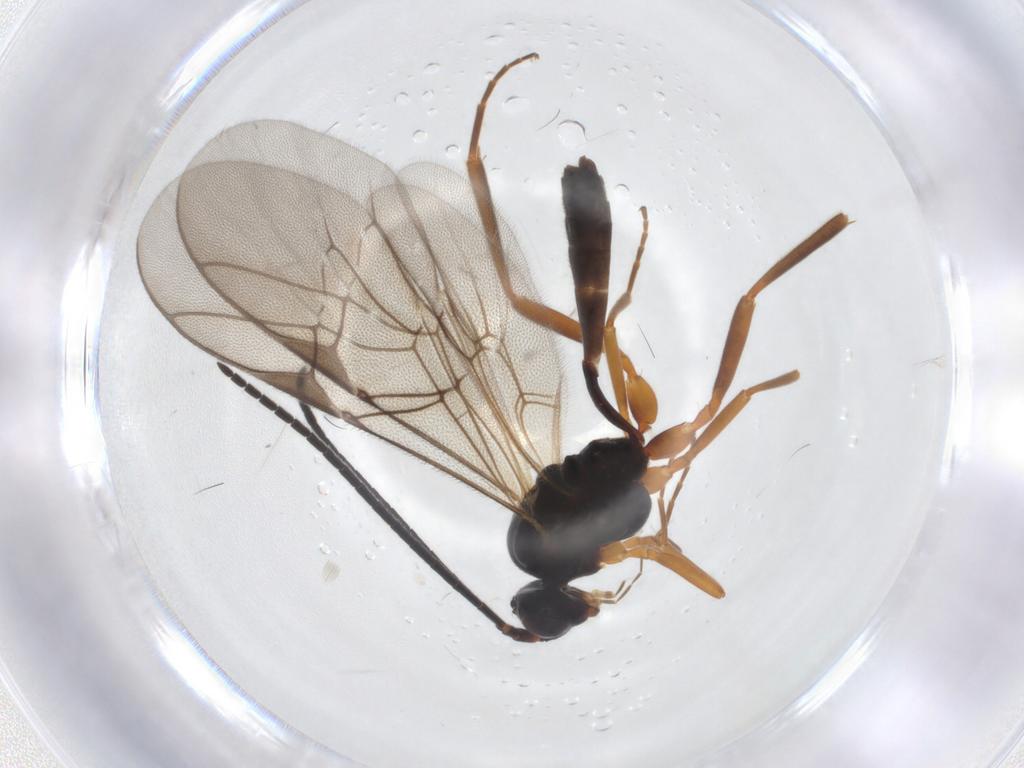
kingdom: Animalia
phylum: Arthropoda
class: Insecta
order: Hymenoptera
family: Ichneumonidae
